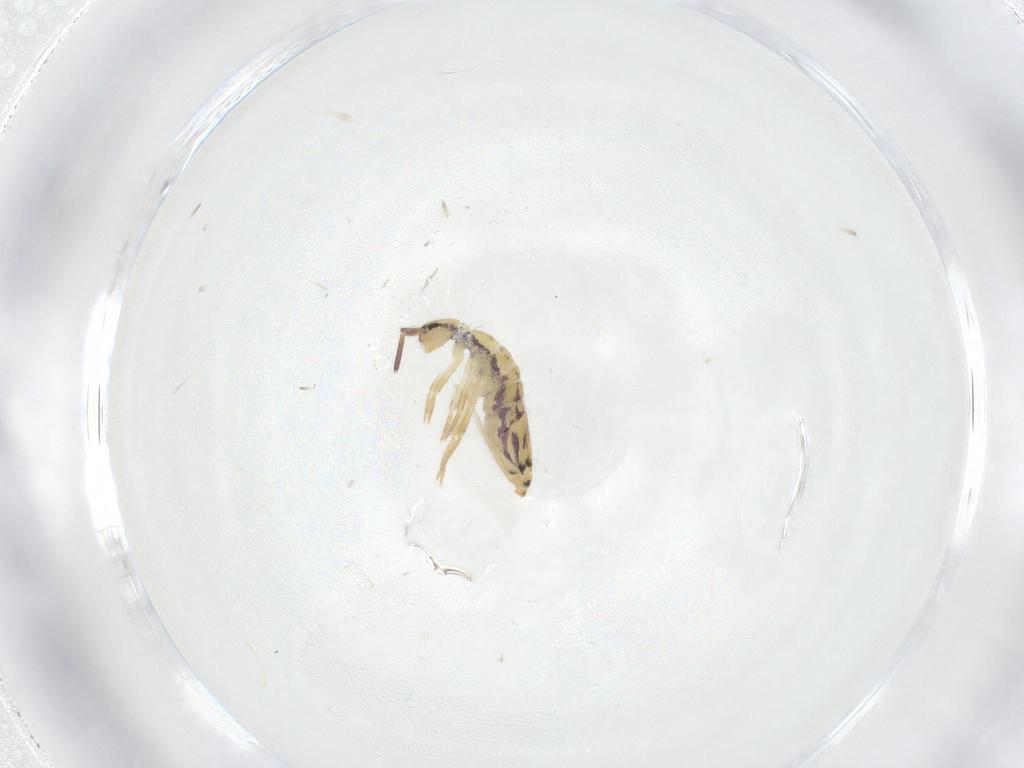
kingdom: Animalia
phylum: Arthropoda
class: Collembola
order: Entomobryomorpha
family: Entomobryidae
